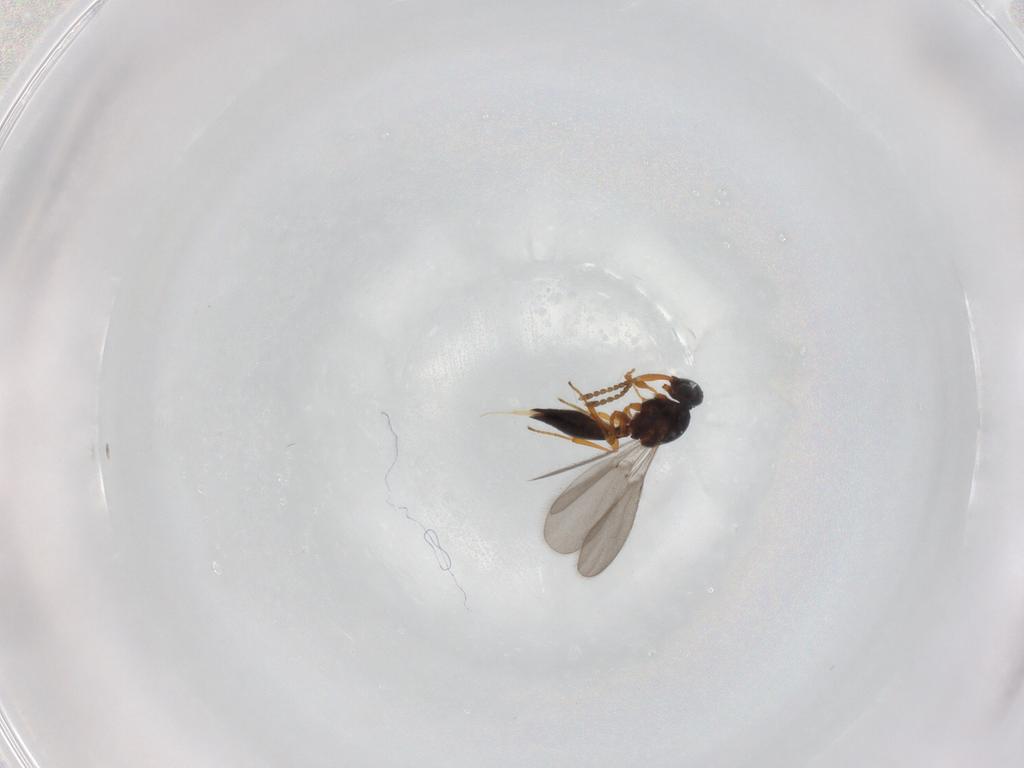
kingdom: Animalia
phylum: Arthropoda
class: Insecta
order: Hymenoptera
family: Platygastridae
